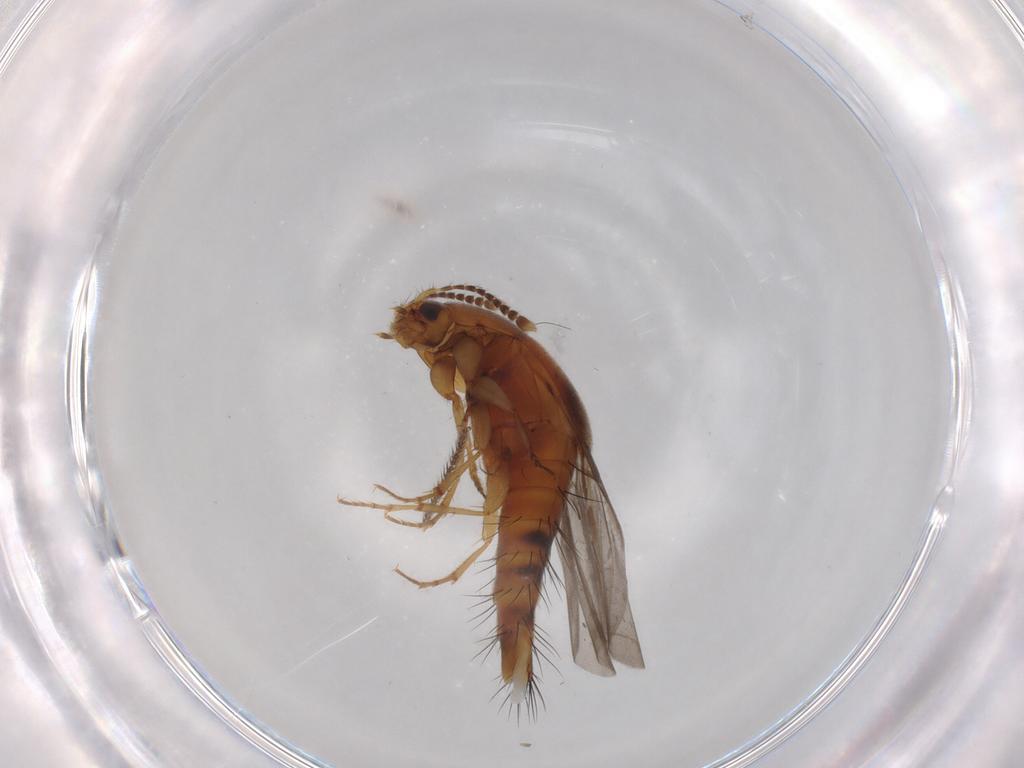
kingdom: Animalia
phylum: Arthropoda
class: Insecta
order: Coleoptera
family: Staphylinidae
